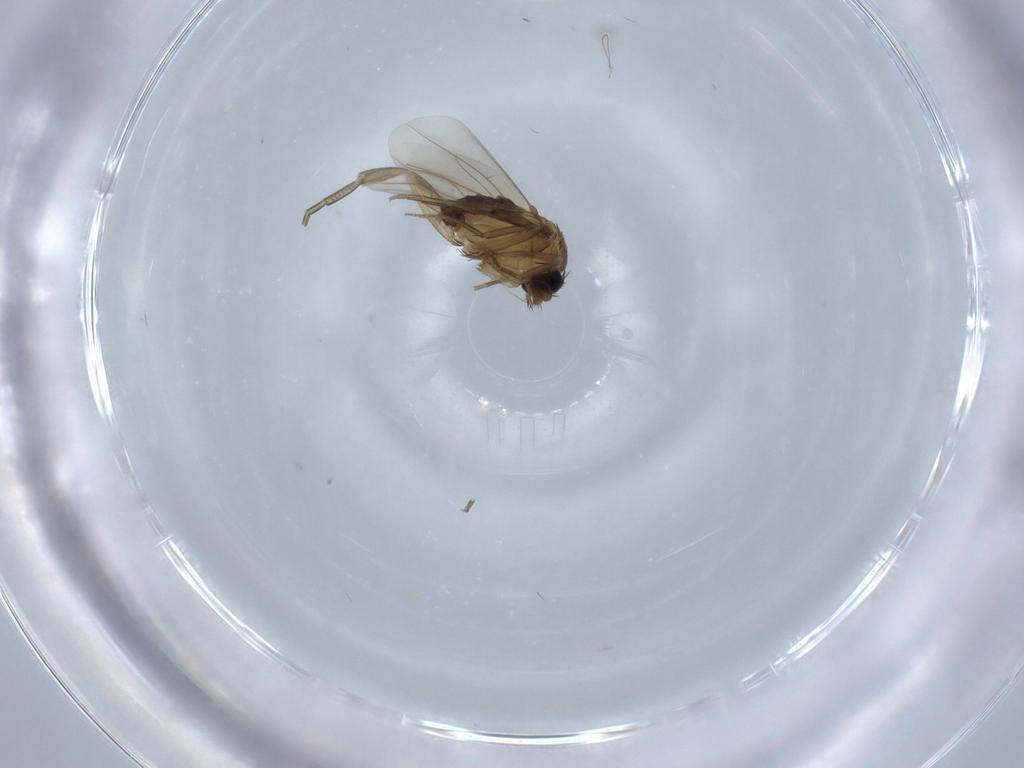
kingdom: Animalia
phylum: Arthropoda
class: Insecta
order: Diptera
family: Phoridae
